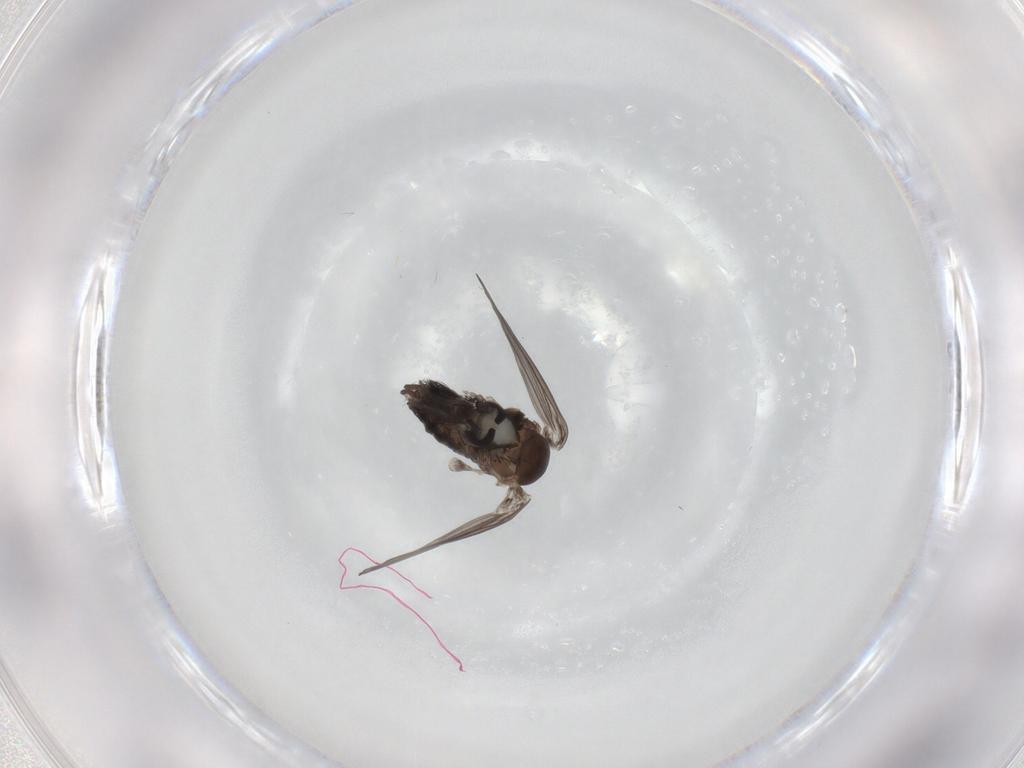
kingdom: Animalia
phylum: Arthropoda
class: Insecta
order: Diptera
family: Psychodidae
